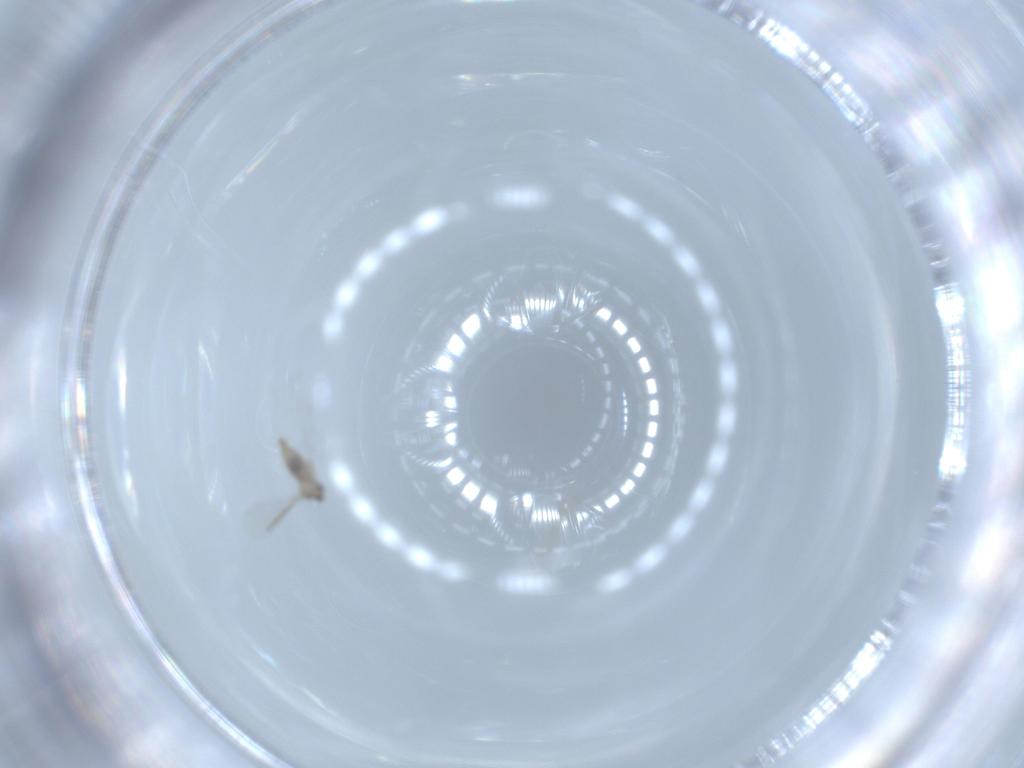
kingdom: Animalia
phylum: Arthropoda
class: Insecta
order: Diptera
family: Cecidomyiidae
